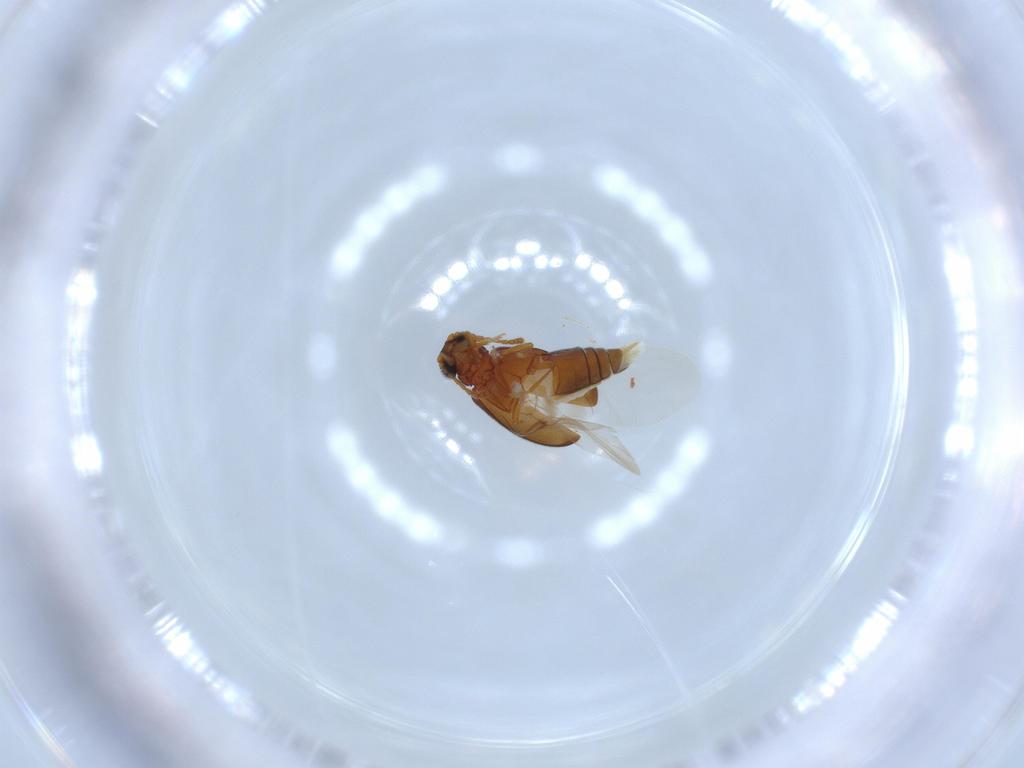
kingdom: Animalia
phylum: Arthropoda
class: Insecta
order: Coleoptera
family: Aderidae
